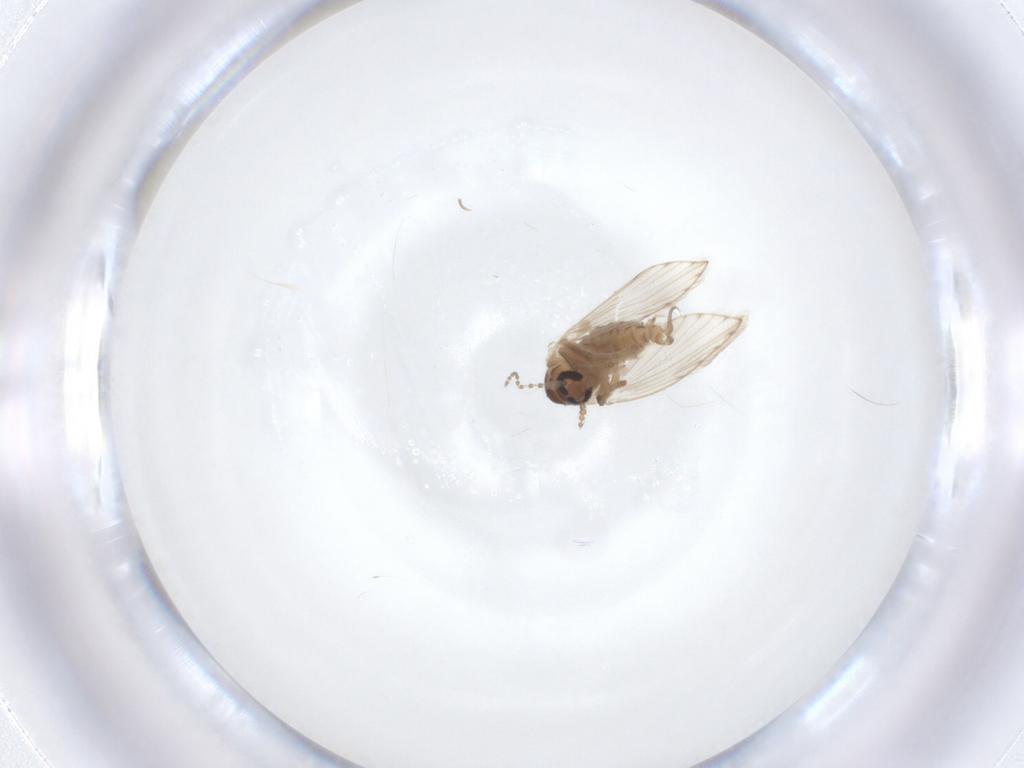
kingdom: Animalia
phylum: Arthropoda
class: Insecta
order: Diptera
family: Psychodidae
